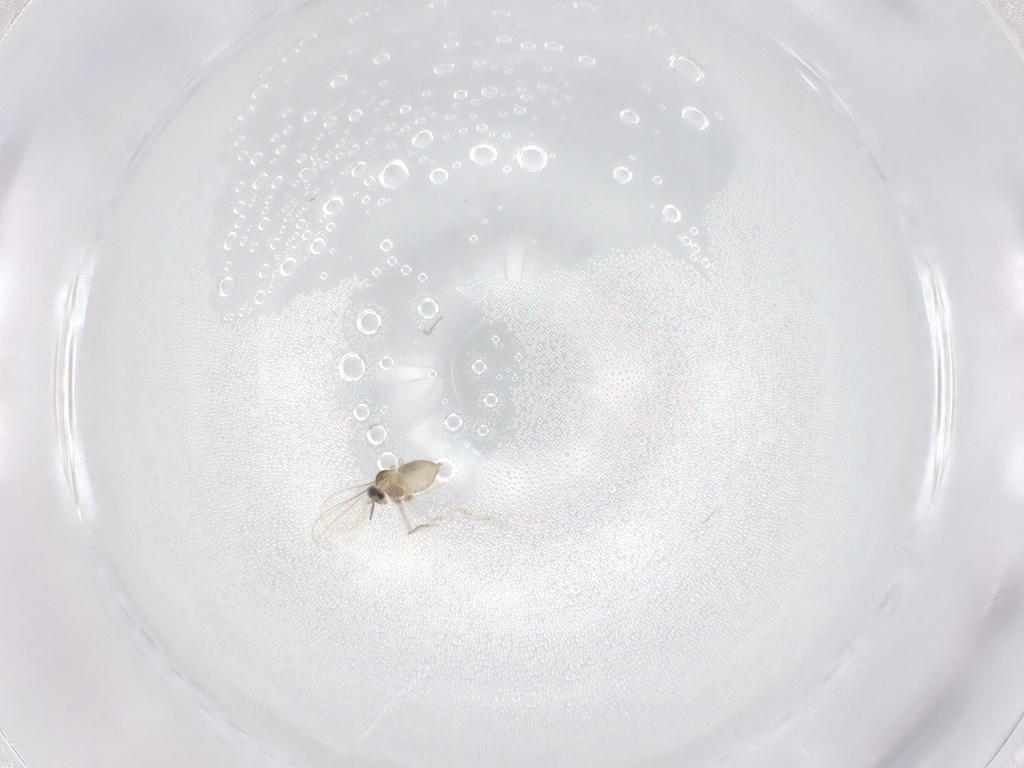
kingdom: Animalia
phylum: Arthropoda
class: Insecta
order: Diptera
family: Cecidomyiidae
